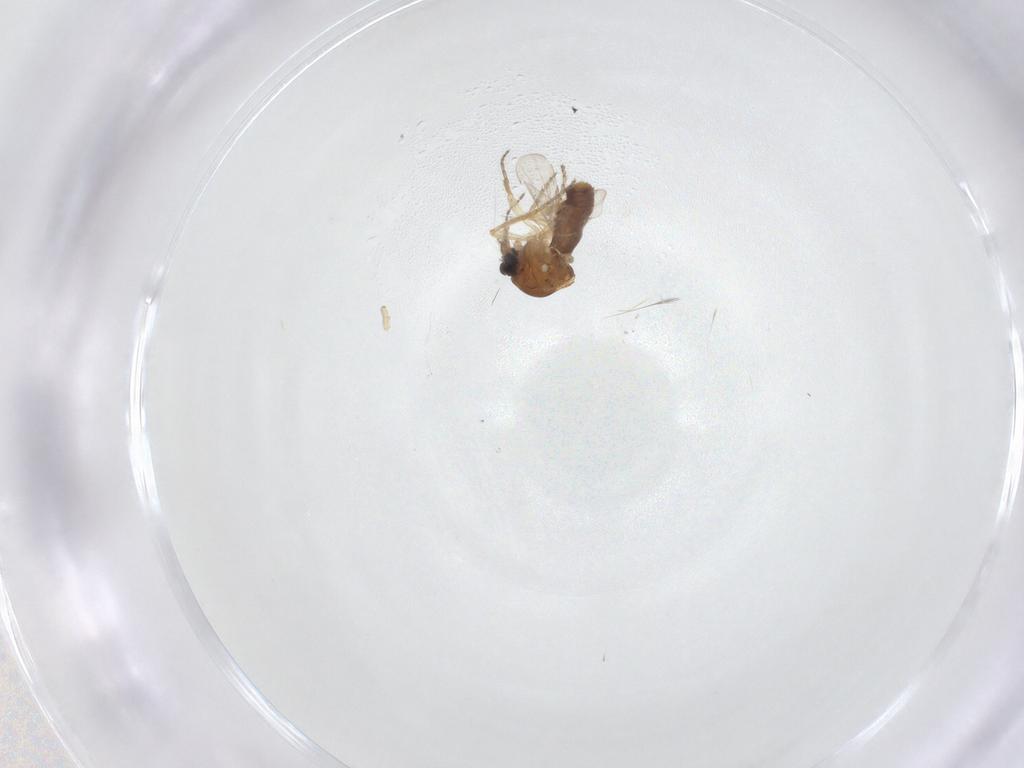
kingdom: Animalia
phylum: Arthropoda
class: Insecta
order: Diptera
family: Ceratopogonidae
